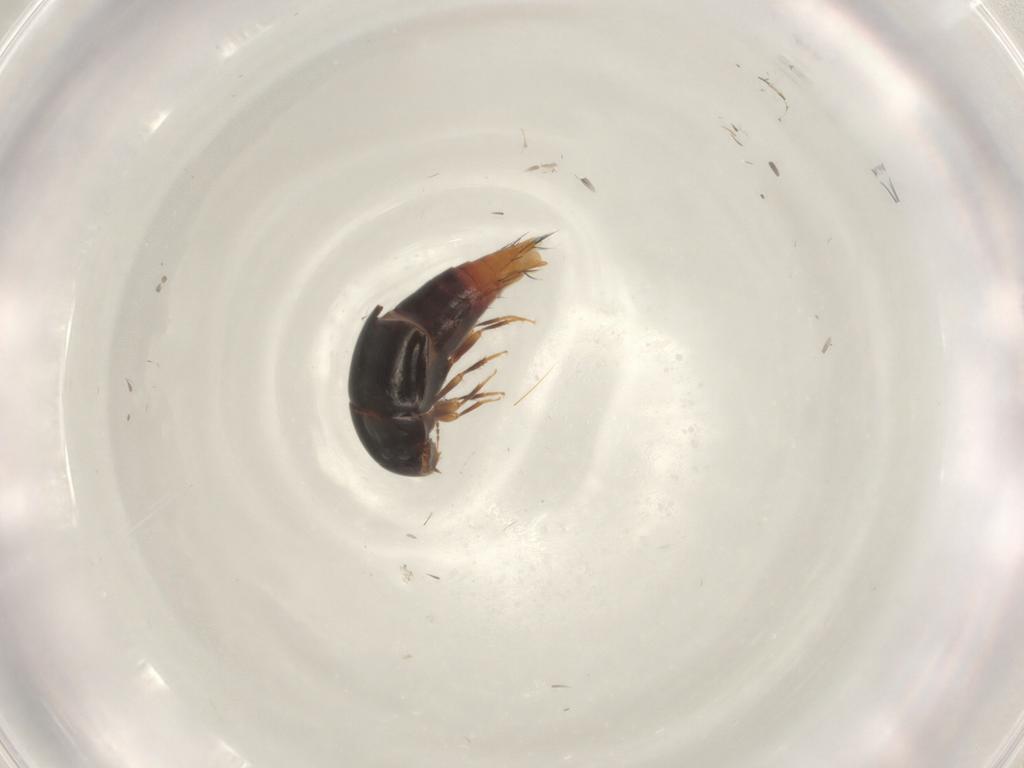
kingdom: Animalia
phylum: Arthropoda
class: Insecta
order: Coleoptera
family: Staphylinidae
